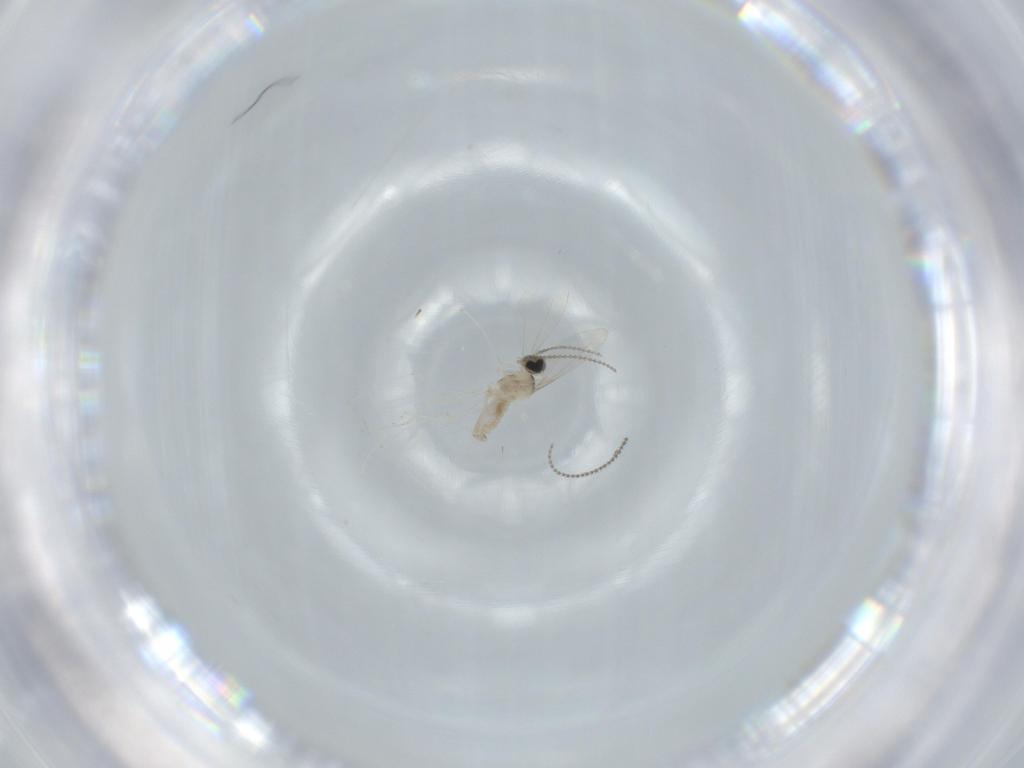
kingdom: Animalia
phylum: Arthropoda
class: Insecta
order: Diptera
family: Cecidomyiidae
